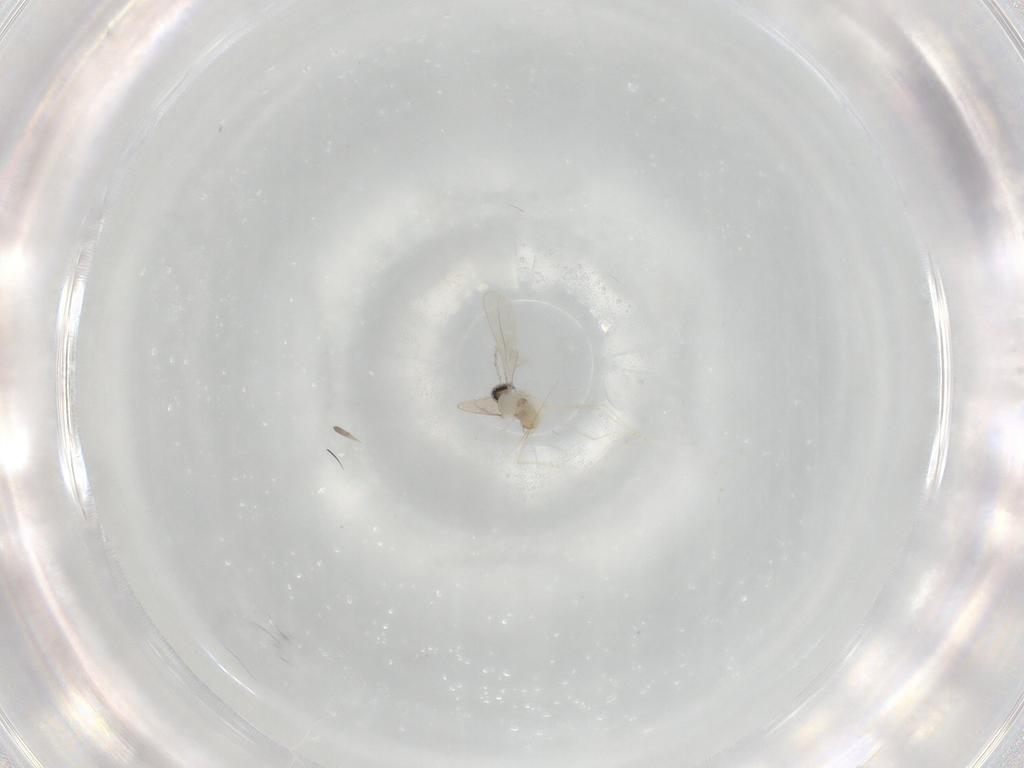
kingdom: Animalia
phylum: Arthropoda
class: Insecta
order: Diptera
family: Cecidomyiidae
